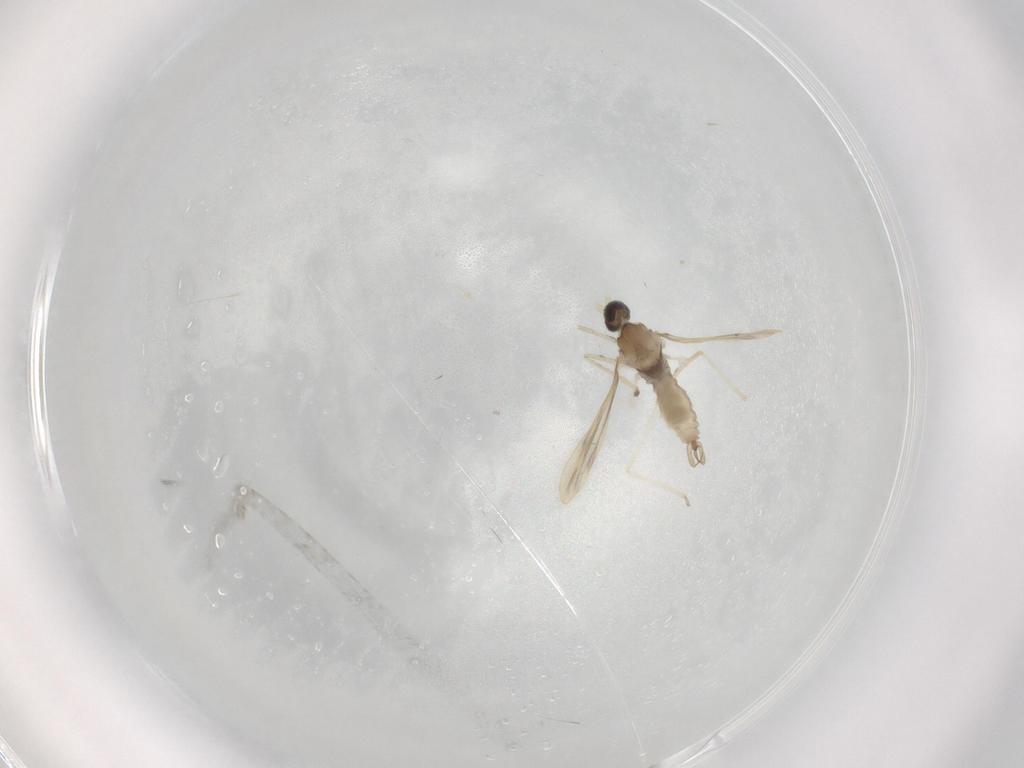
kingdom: Animalia
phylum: Arthropoda
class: Insecta
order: Diptera
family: Cecidomyiidae
